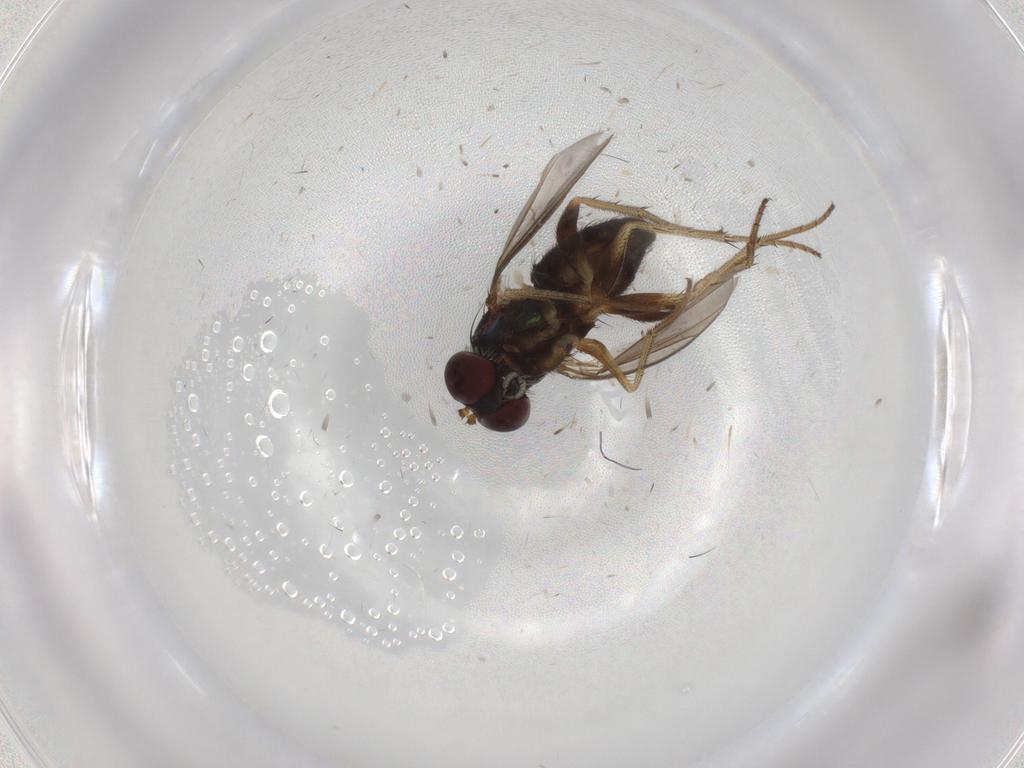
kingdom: Animalia
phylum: Arthropoda
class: Insecta
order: Diptera
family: Dolichopodidae
